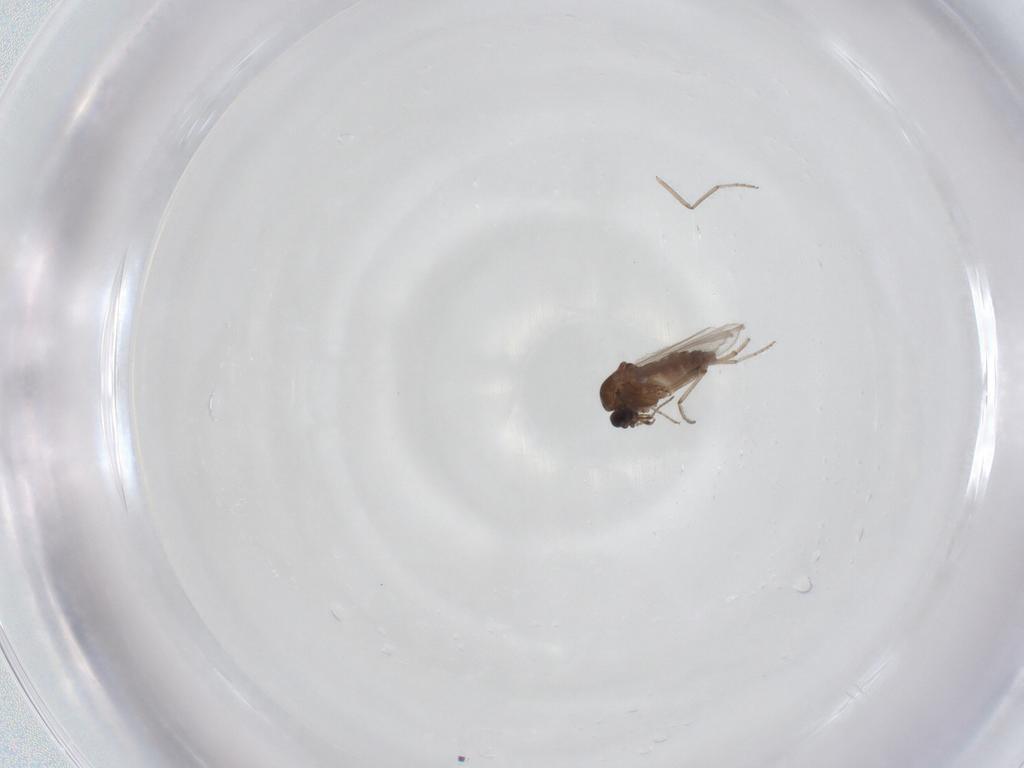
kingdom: Animalia
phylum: Arthropoda
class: Insecta
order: Diptera
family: Ceratopogonidae
